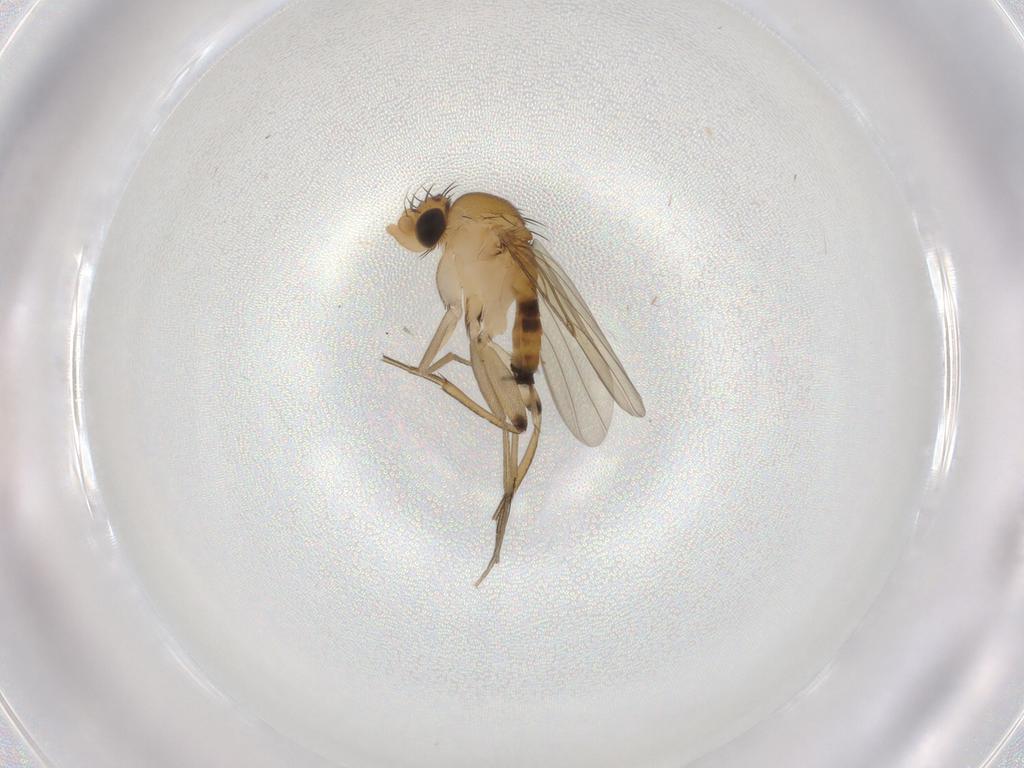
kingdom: Animalia
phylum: Arthropoda
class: Insecta
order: Diptera
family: Phoridae
